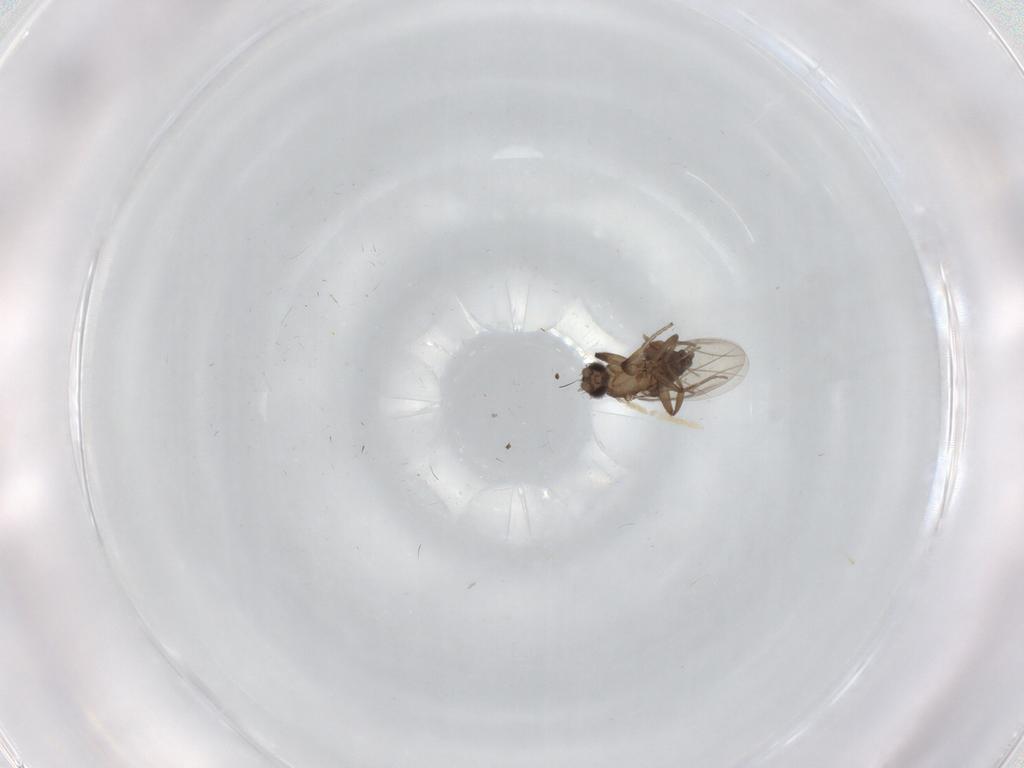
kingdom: Animalia
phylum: Arthropoda
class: Insecta
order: Diptera
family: Chironomidae
